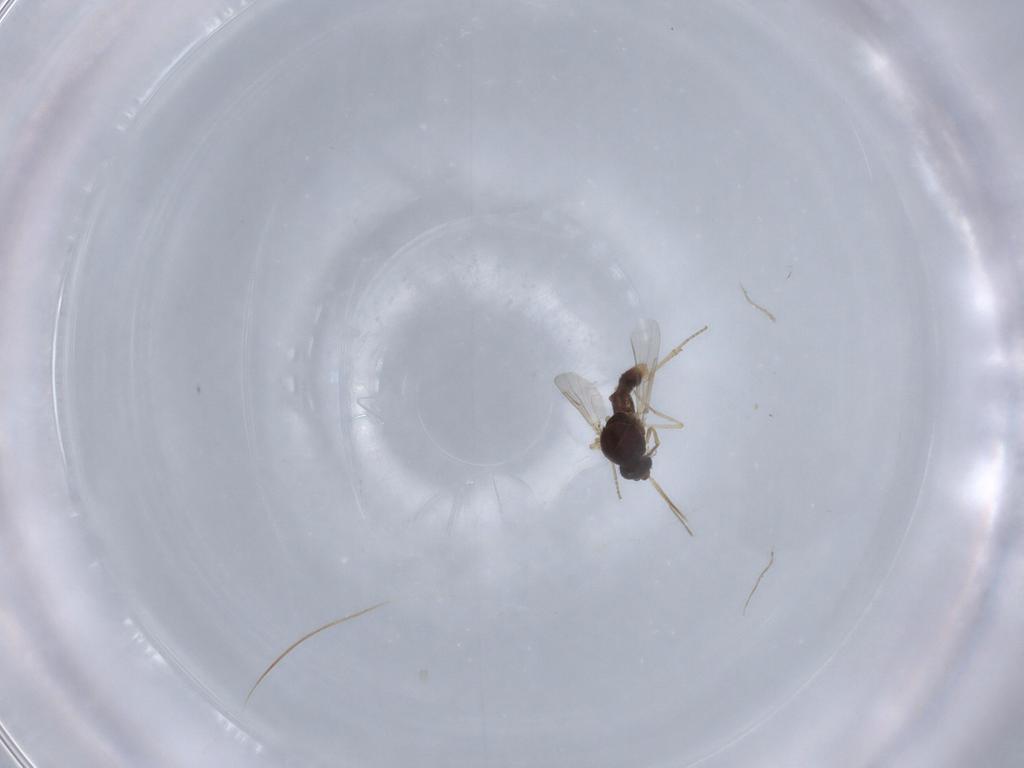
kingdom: Animalia
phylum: Arthropoda
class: Insecta
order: Diptera
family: Ceratopogonidae
